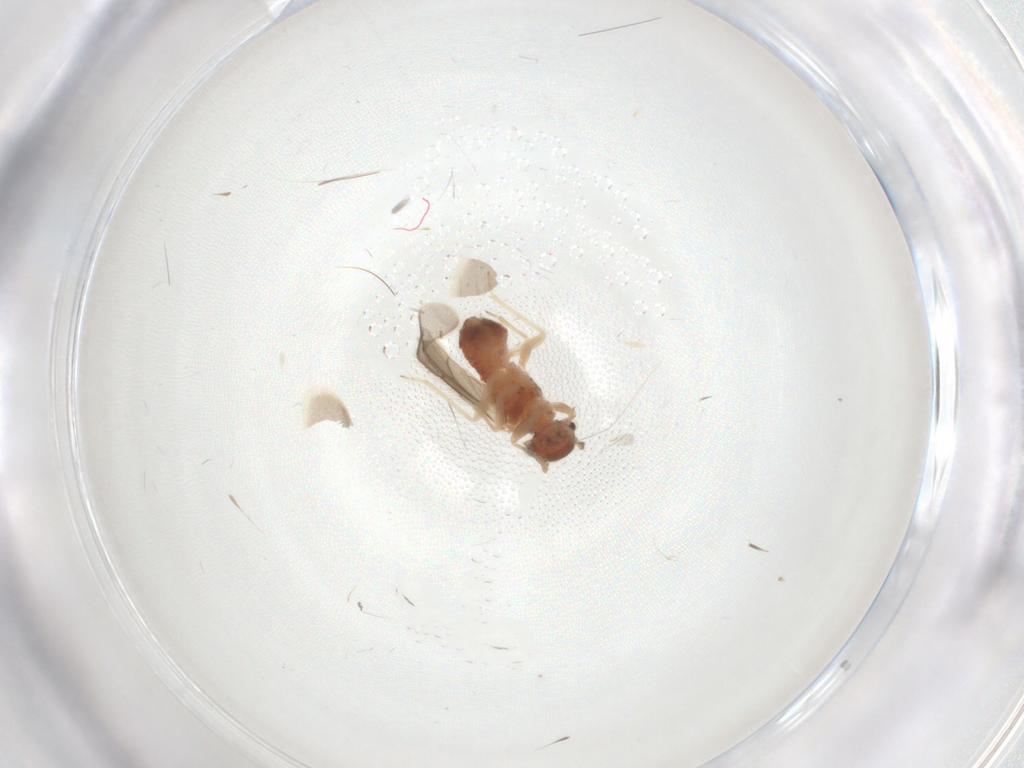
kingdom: Animalia
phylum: Arthropoda
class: Insecta
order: Psocodea
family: Archipsocidae
